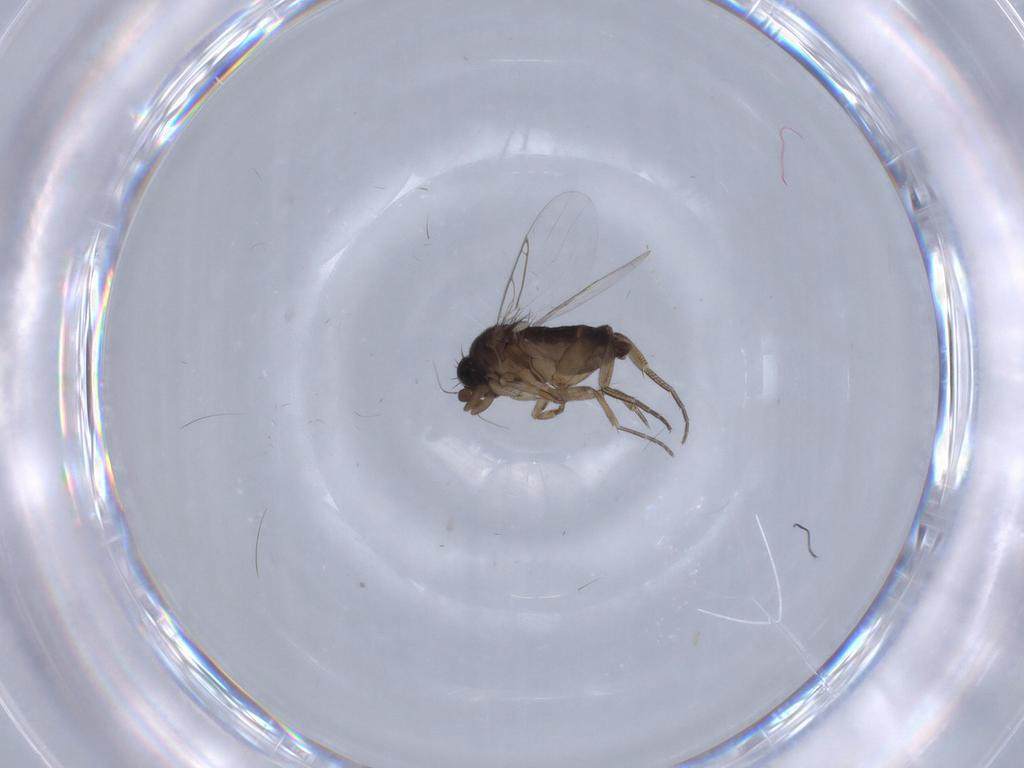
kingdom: Animalia
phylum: Arthropoda
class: Insecta
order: Diptera
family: Phoridae
